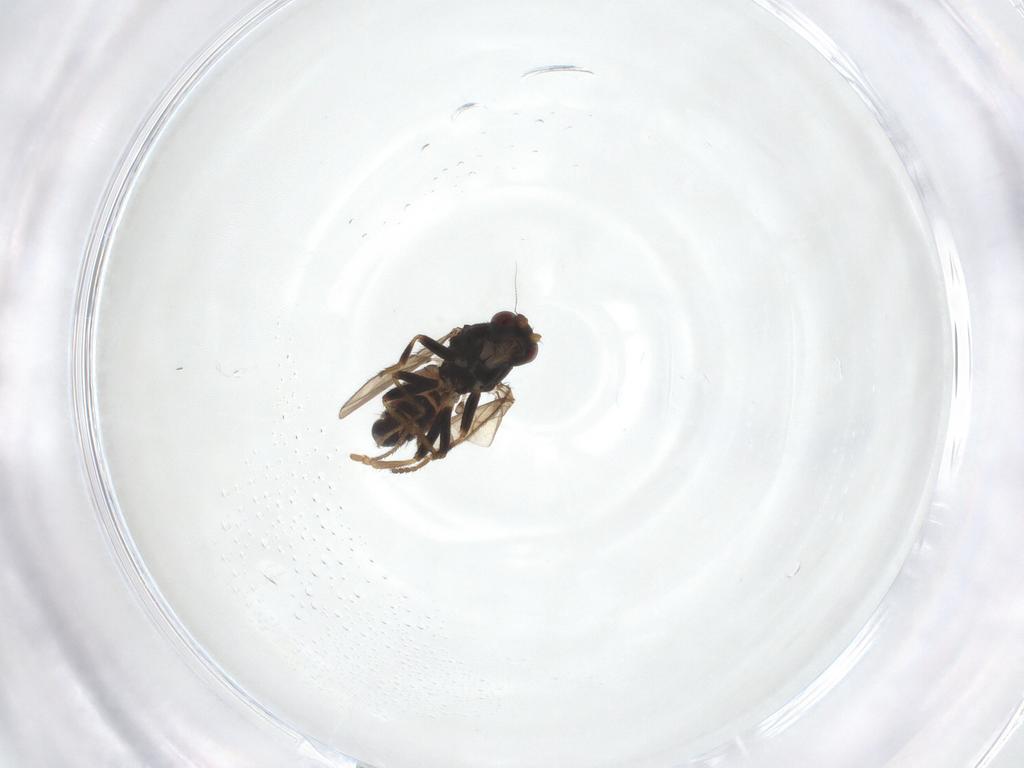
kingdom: Animalia
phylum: Arthropoda
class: Insecta
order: Diptera
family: Sphaeroceridae
